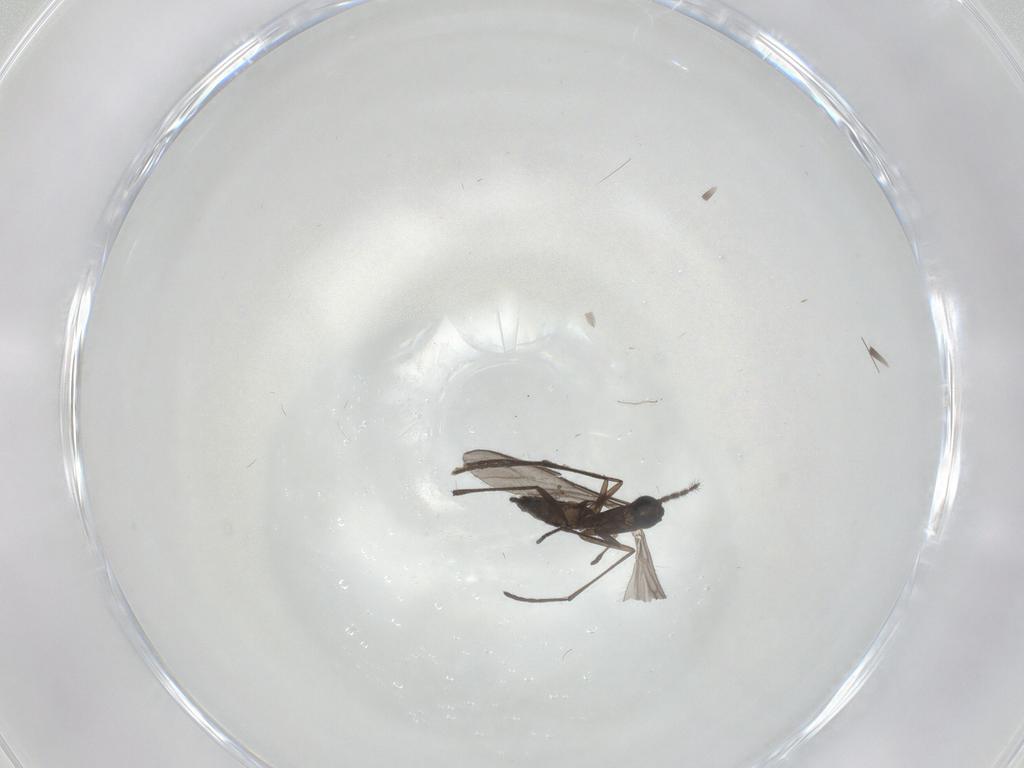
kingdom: Animalia
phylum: Arthropoda
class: Insecta
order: Diptera
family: Sciaridae
